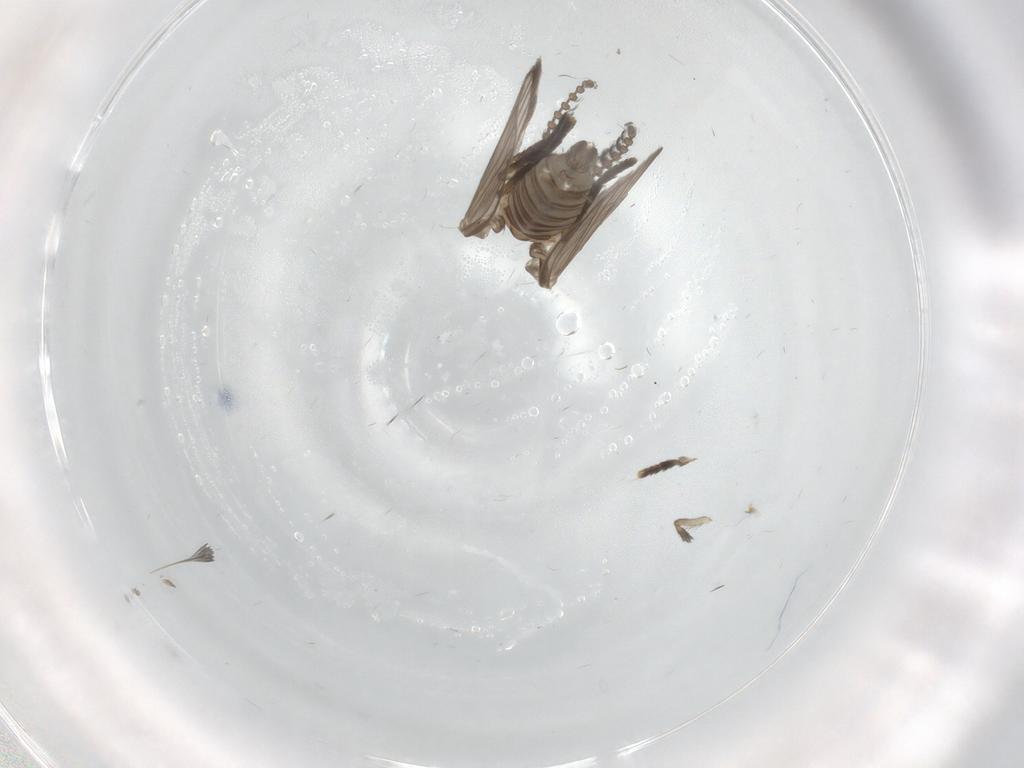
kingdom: Animalia
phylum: Arthropoda
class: Insecta
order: Diptera
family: Psychodidae
